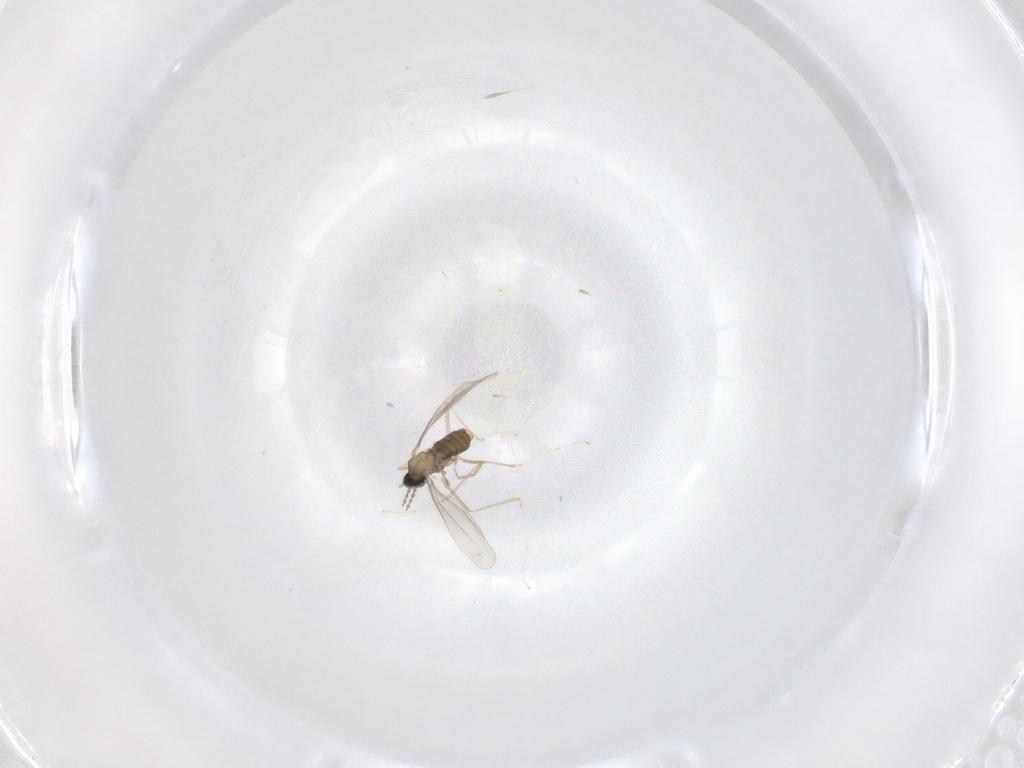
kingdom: Animalia
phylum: Arthropoda
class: Insecta
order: Diptera
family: Cecidomyiidae
